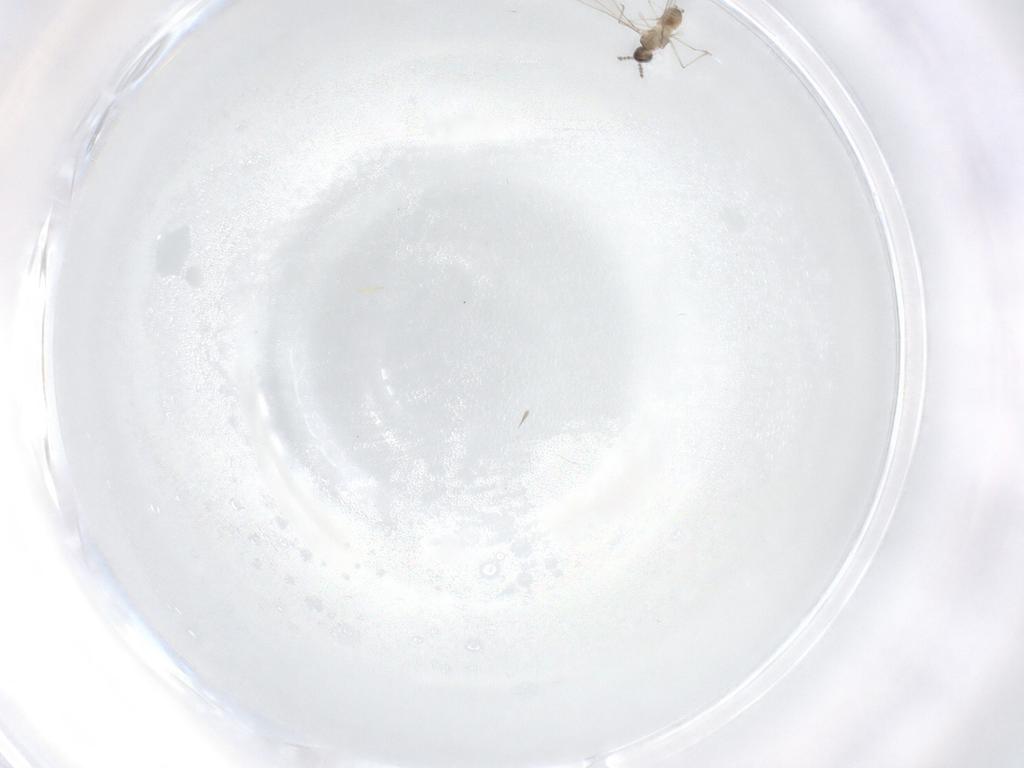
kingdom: Animalia
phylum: Arthropoda
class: Insecta
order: Diptera
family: Cecidomyiidae
